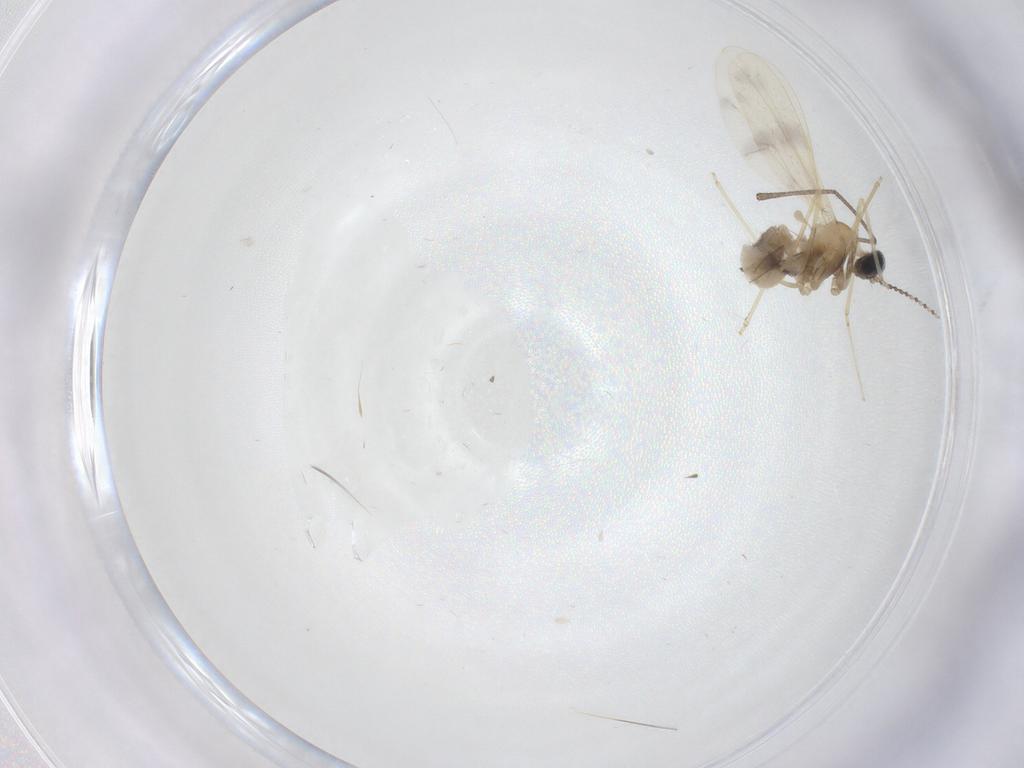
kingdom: Animalia
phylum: Arthropoda
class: Insecta
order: Diptera
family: Cecidomyiidae
